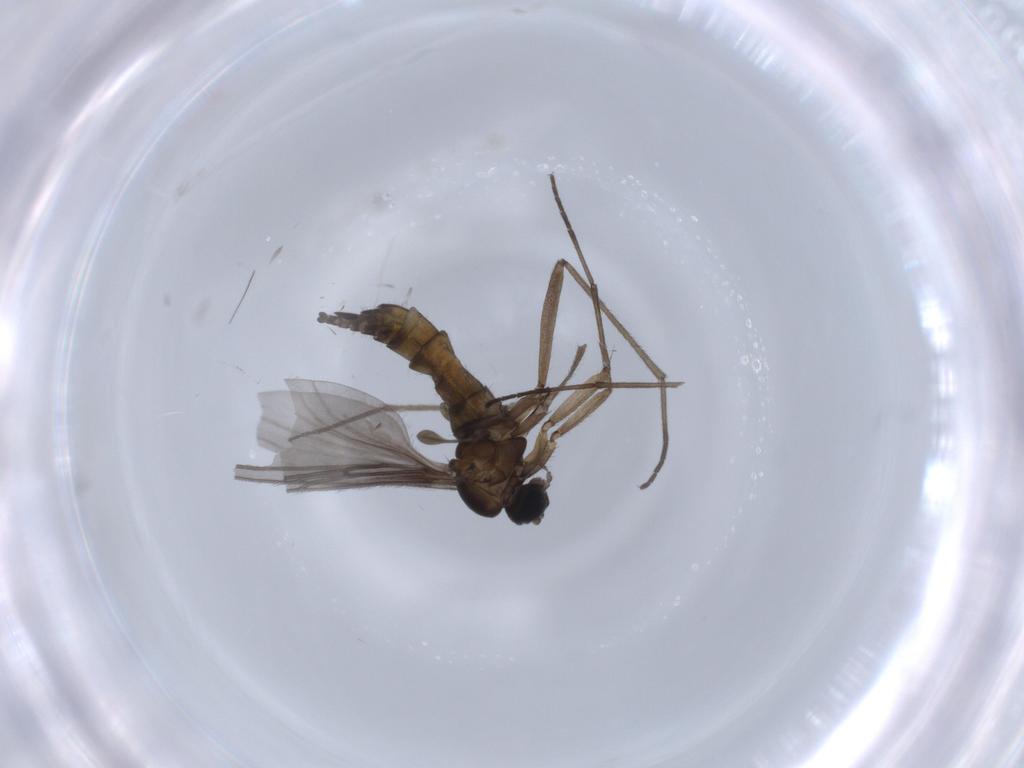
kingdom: Animalia
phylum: Arthropoda
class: Insecta
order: Diptera
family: Sciaridae
